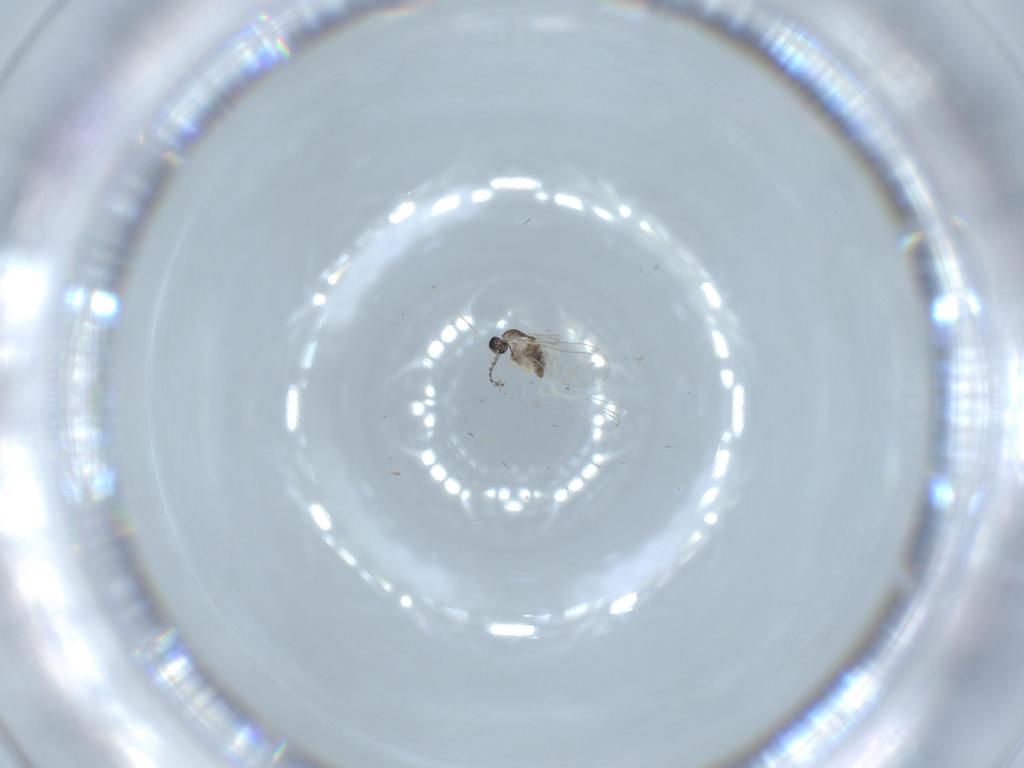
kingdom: Animalia
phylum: Arthropoda
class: Insecta
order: Diptera
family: Cecidomyiidae
